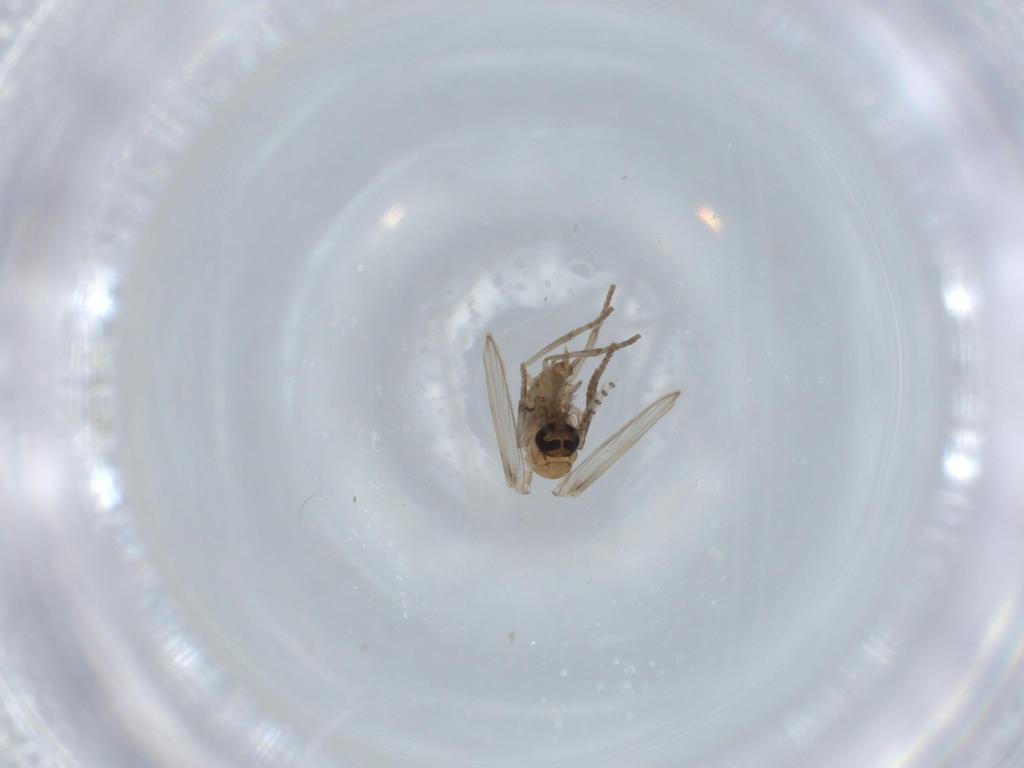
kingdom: Animalia
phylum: Arthropoda
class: Insecta
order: Diptera
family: Psychodidae
